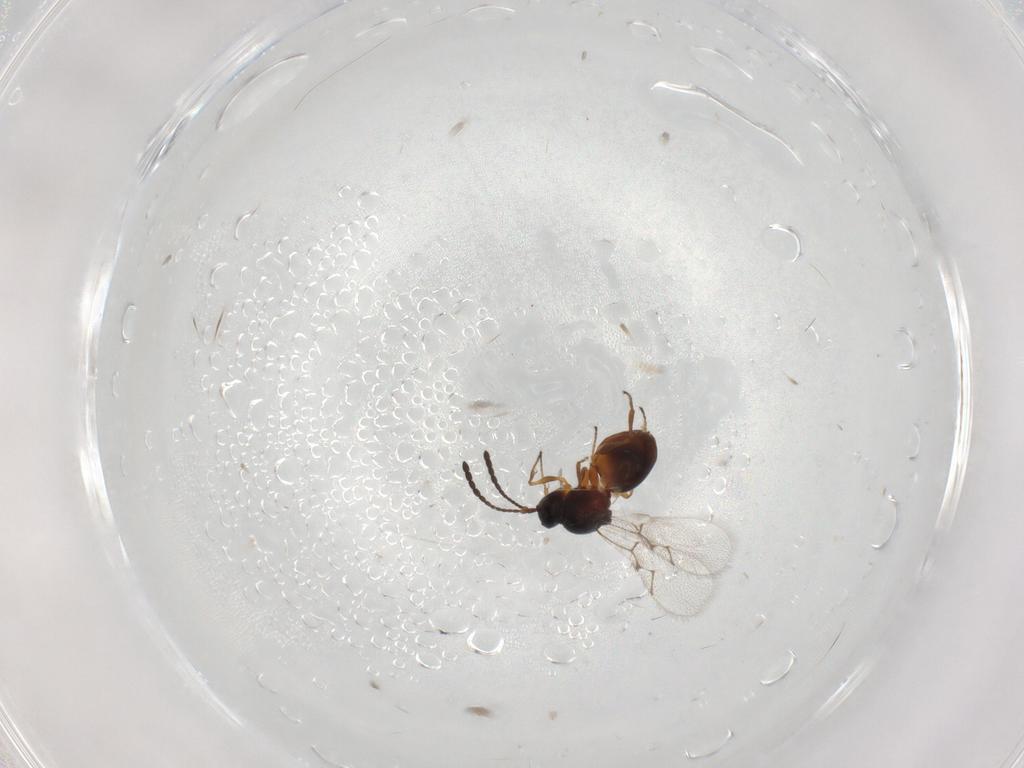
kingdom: Animalia
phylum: Arthropoda
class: Insecta
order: Hymenoptera
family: Figitidae
